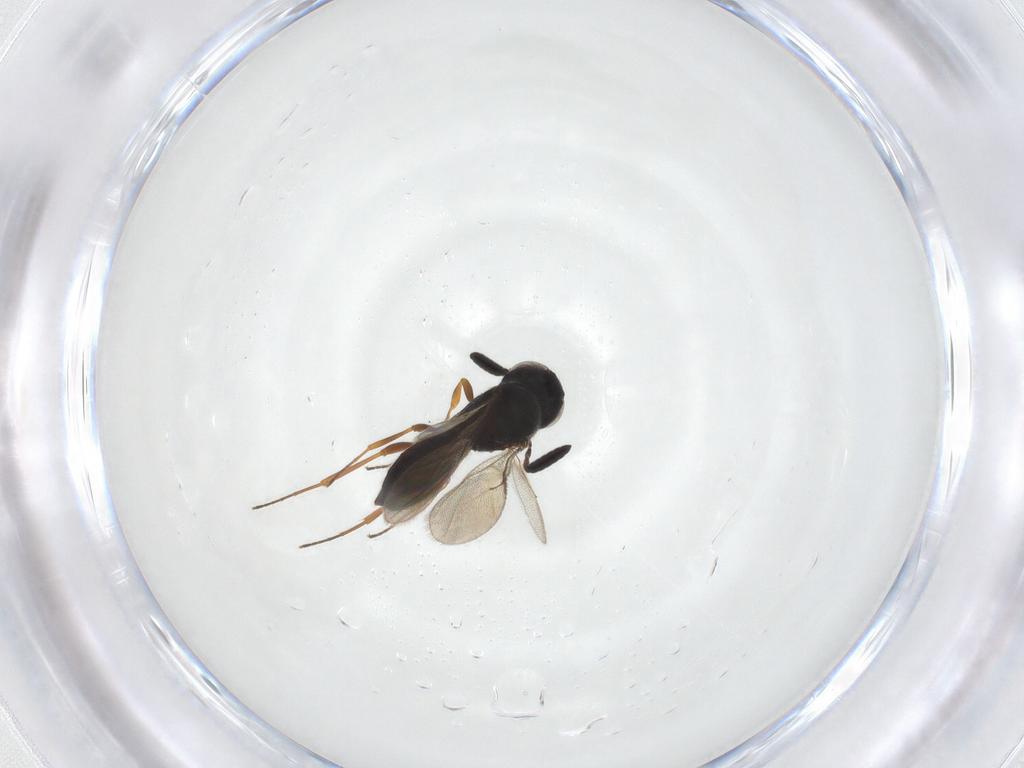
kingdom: Animalia
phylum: Arthropoda
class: Insecta
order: Hymenoptera
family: Scelionidae
